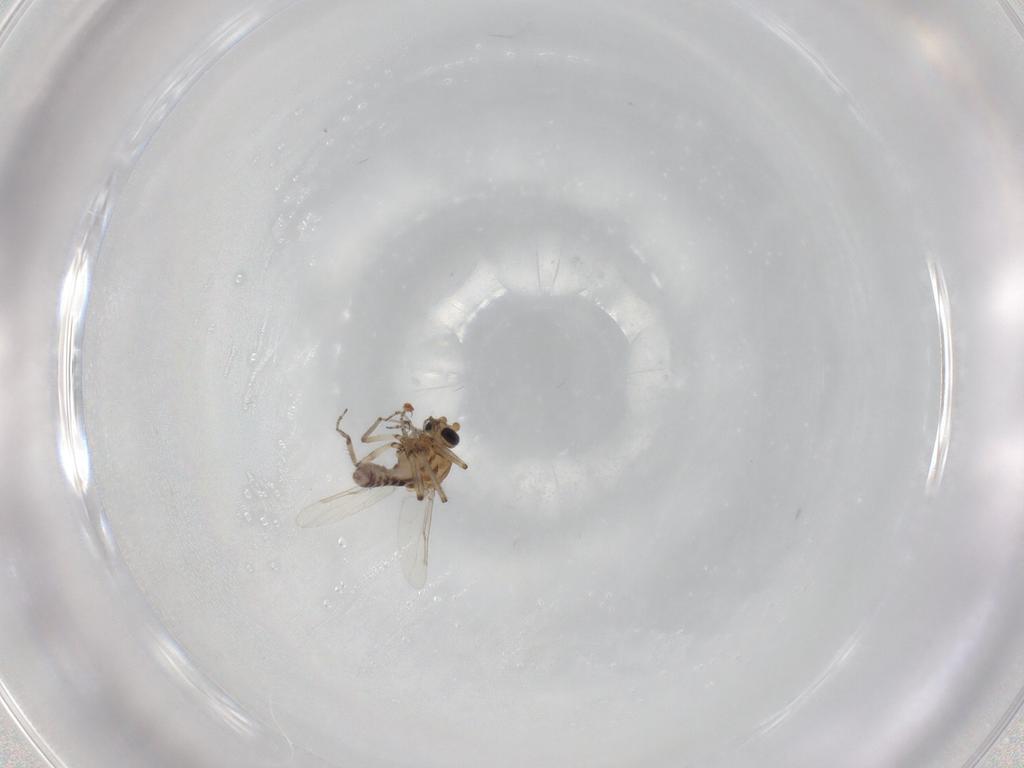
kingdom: Animalia
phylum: Arthropoda
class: Insecta
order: Diptera
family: Ceratopogonidae
